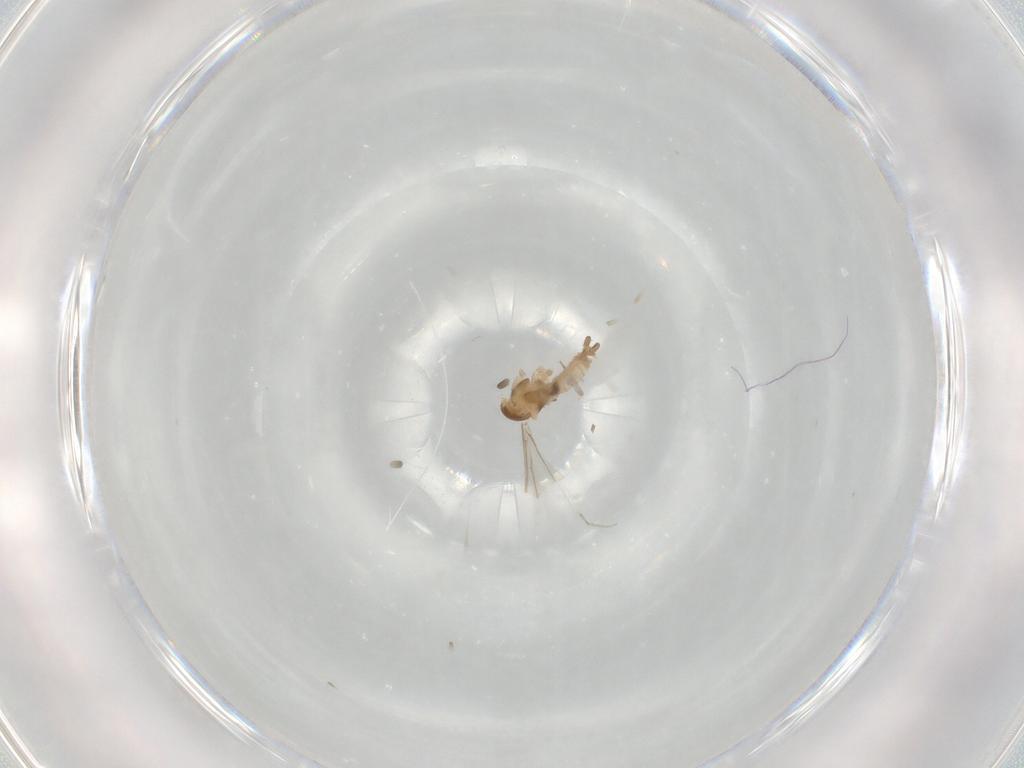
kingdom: Animalia
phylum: Arthropoda
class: Insecta
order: Diptera
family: Cecidomyiidae
